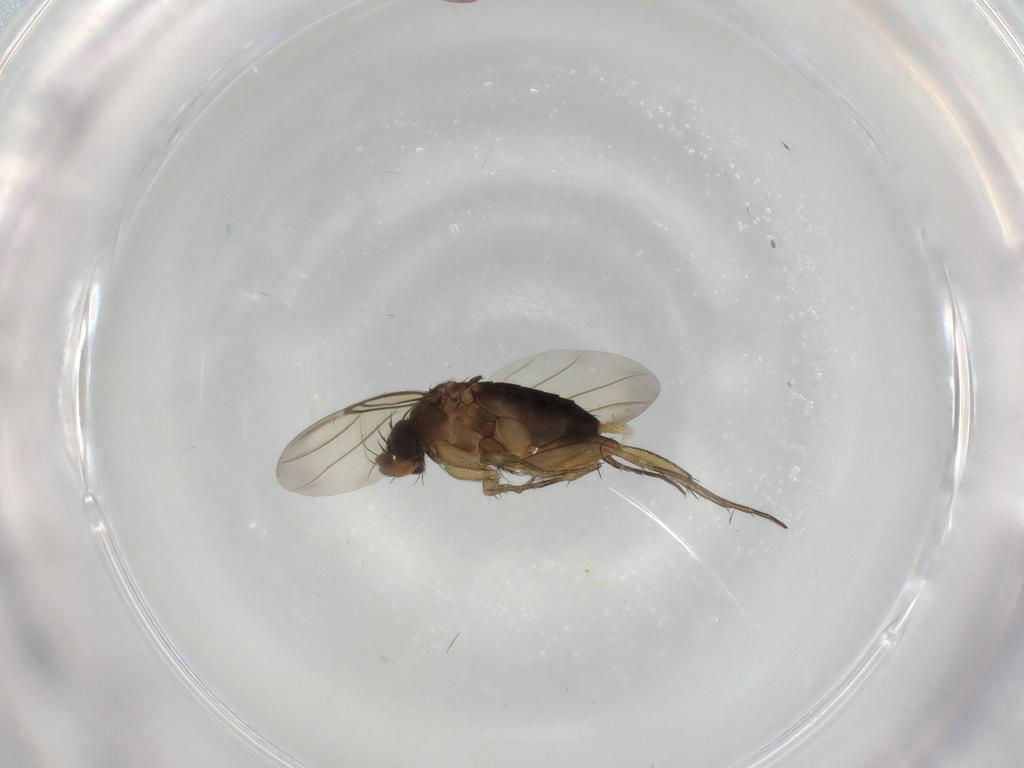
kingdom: Animalia
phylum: Arthropoda
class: Insecta
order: Diptera
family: Phoridae
